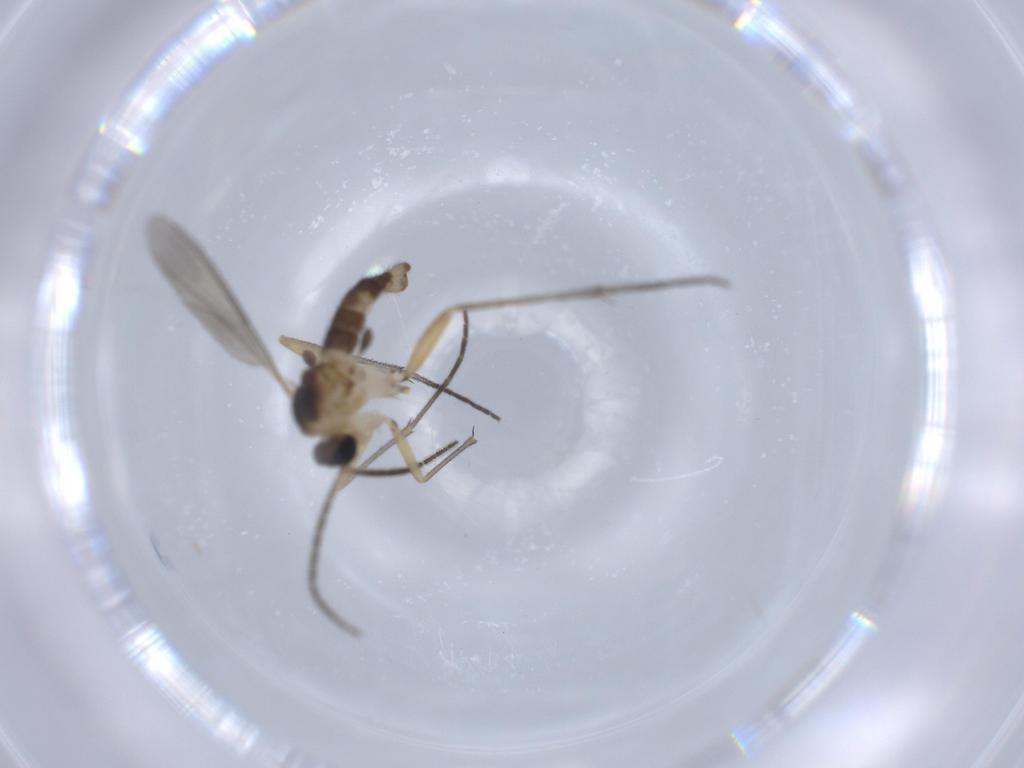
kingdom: Animalia
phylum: Arthropoda
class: Insecta
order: Diptera
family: Sciaridae
